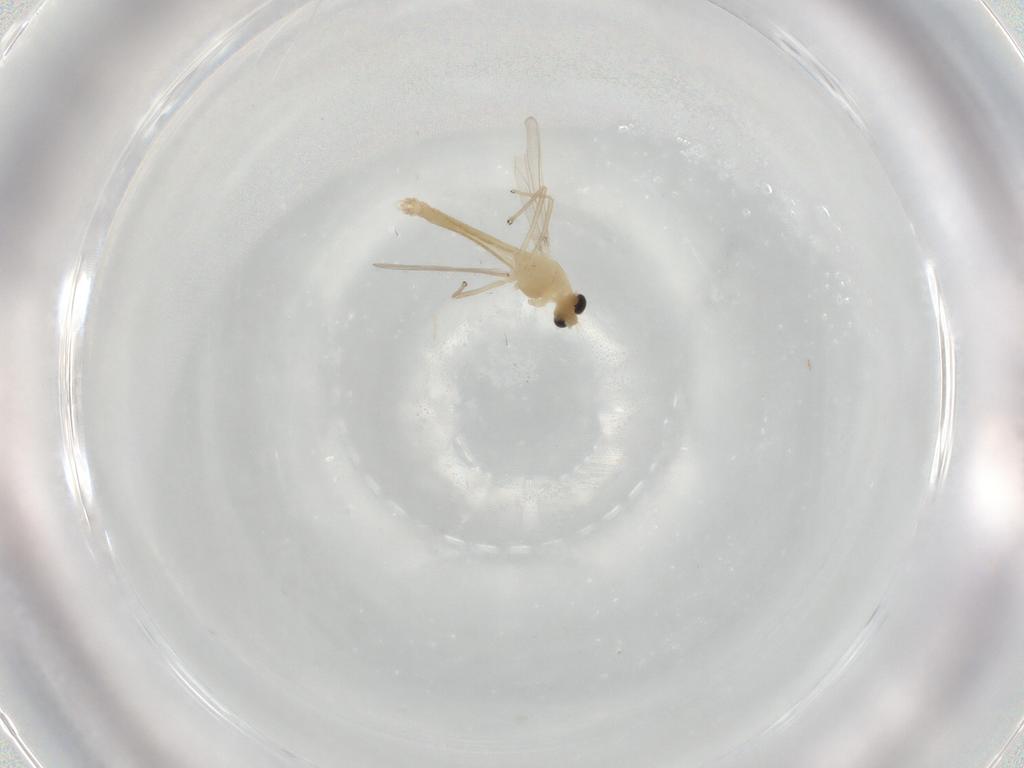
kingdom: Animalia
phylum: Arthropoda
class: Insecta
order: Diptera
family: Chironomidae
